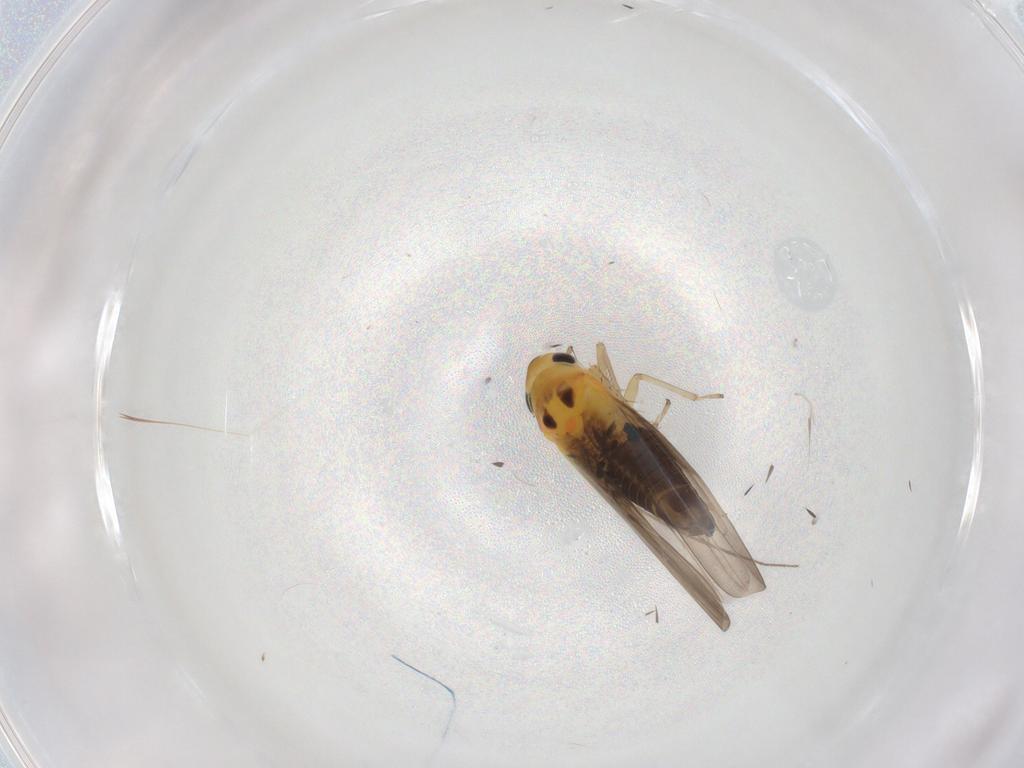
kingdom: Animalia
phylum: Arthropoda
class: Insecta
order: Hemiptera
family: Cicadellidae
